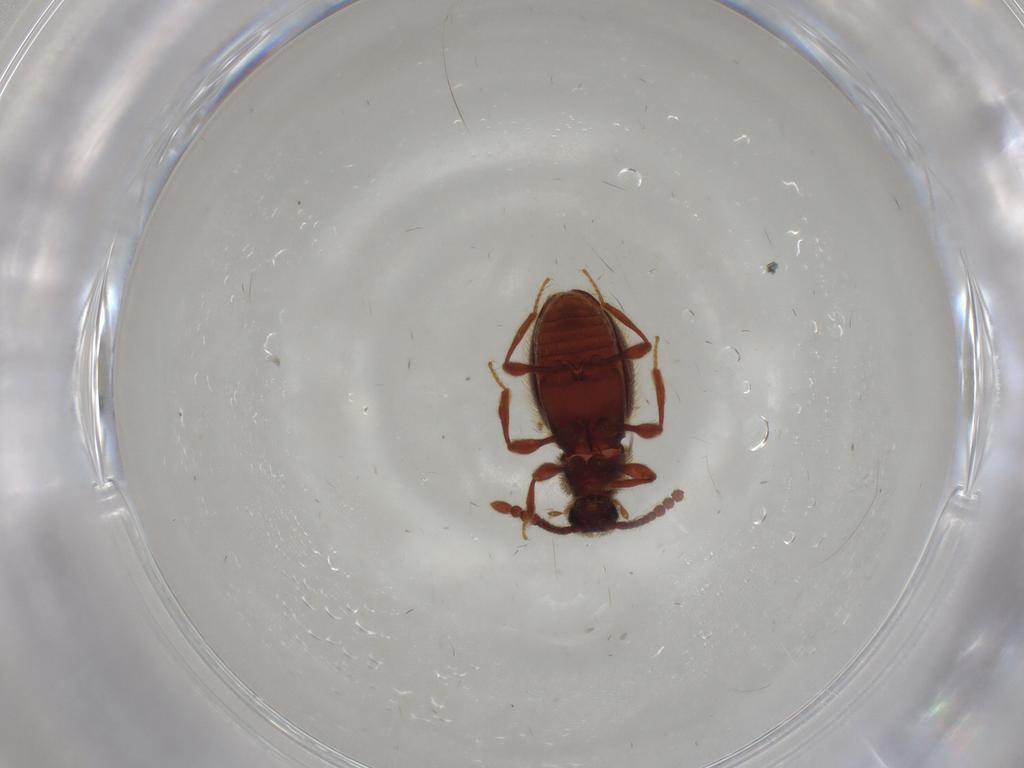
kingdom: Animalia
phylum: Arthropoda
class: Insecta
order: Coleoptera
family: Staphylinidae
